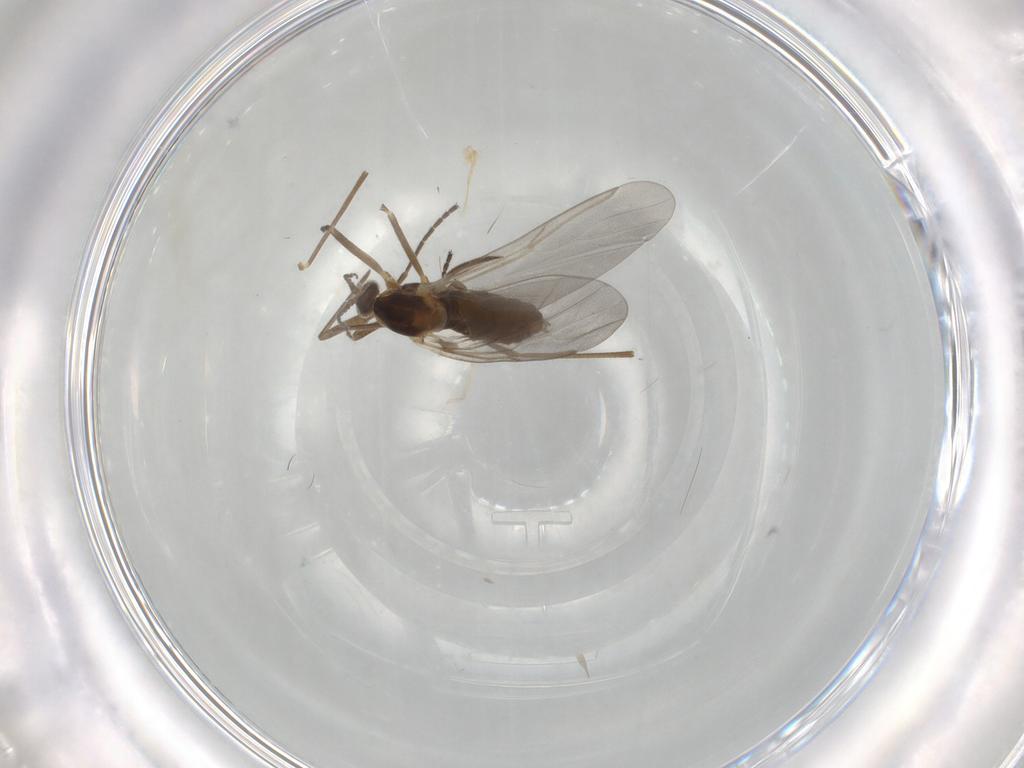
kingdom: Animalia
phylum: Arthropoda
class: Insecta
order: Diptera
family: Cecidomyiidae
